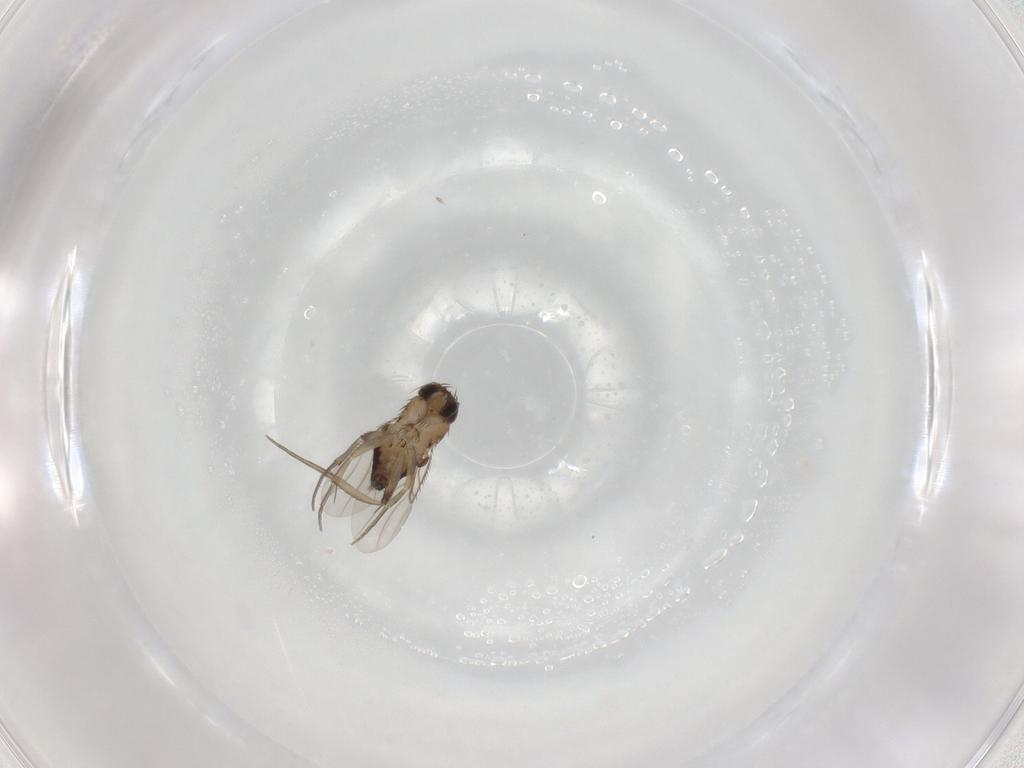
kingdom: Animalia
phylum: Arthropoda
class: Insecta
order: Diptera
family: Phoridae
